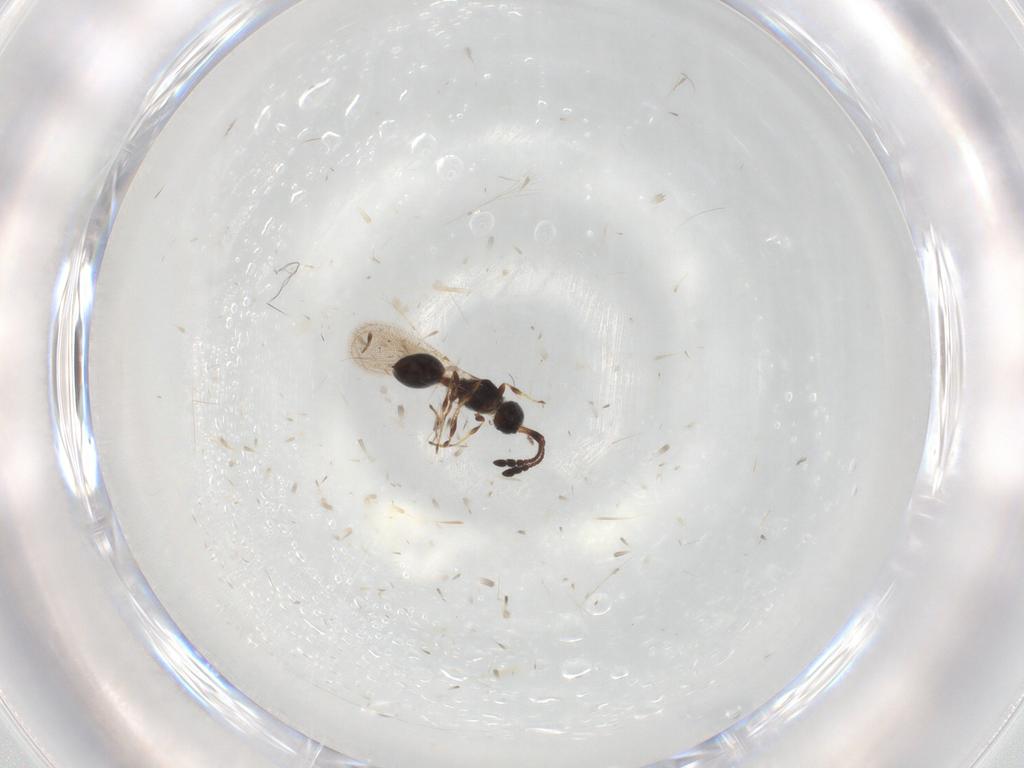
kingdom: Animalia
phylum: Arthropoda
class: Insecta
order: Hymenoptera
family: Diapriidae
